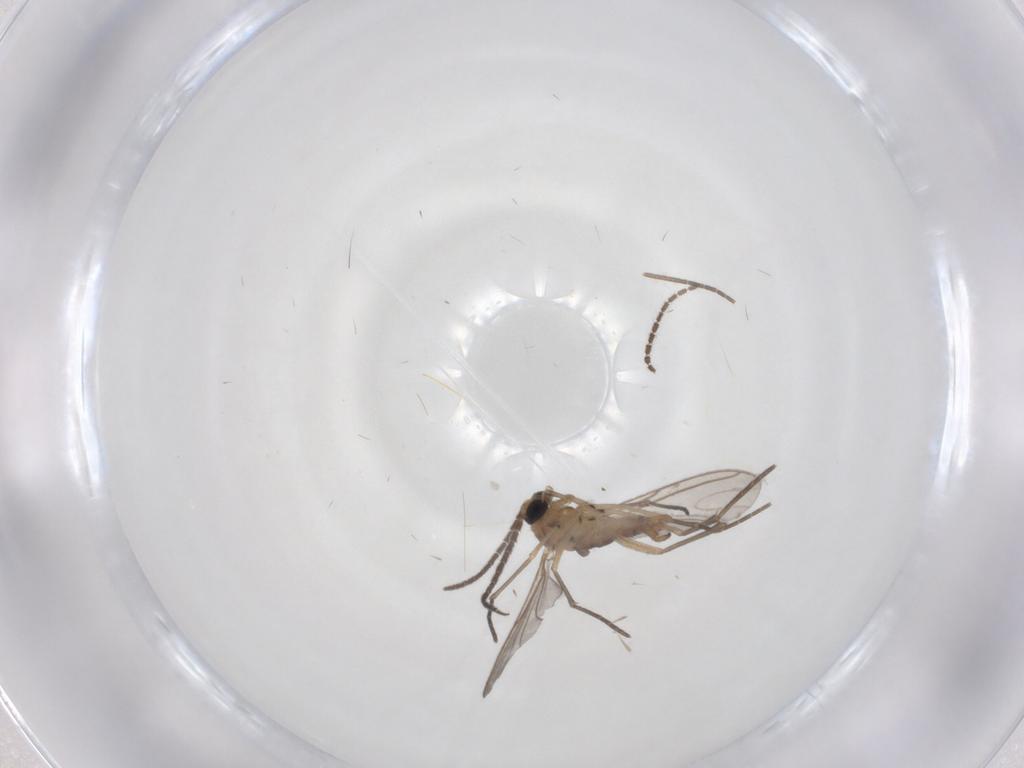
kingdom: Animalia
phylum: Arthropoda
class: Insecta
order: Diptera
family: Sciaridae
